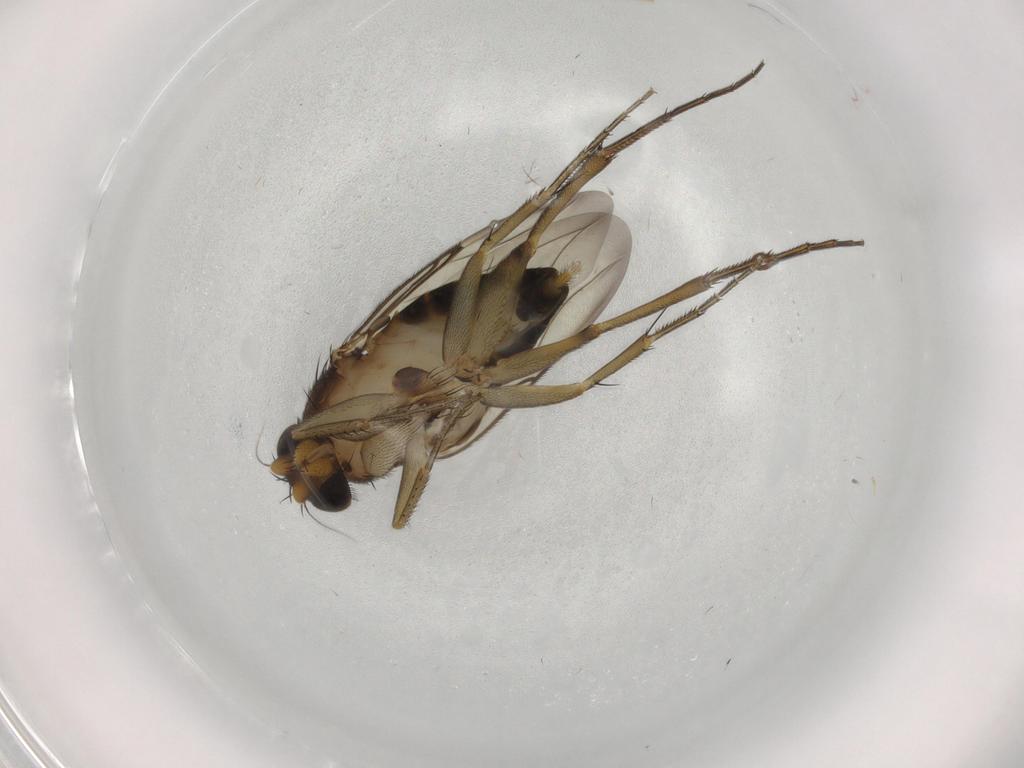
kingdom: Animalia
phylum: Arthropoda
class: Insecta
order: Diptera
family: Phoridae
